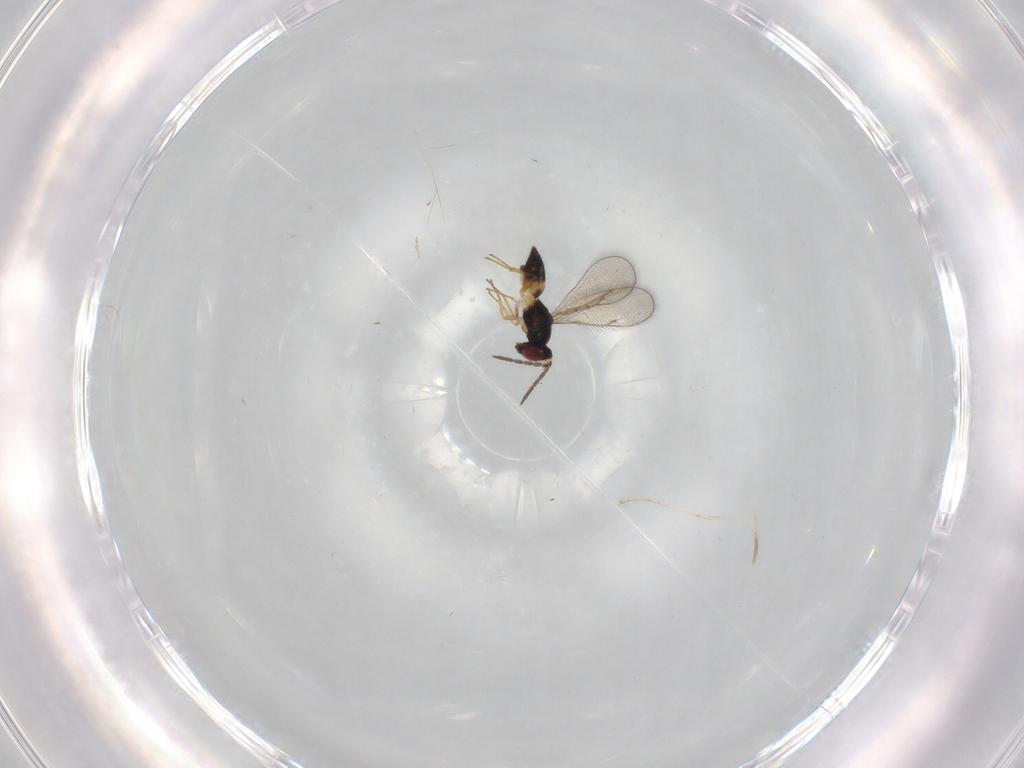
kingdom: Animalia
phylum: Arthropoda
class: Insecta
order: Hymenoptera
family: Eulophidae
